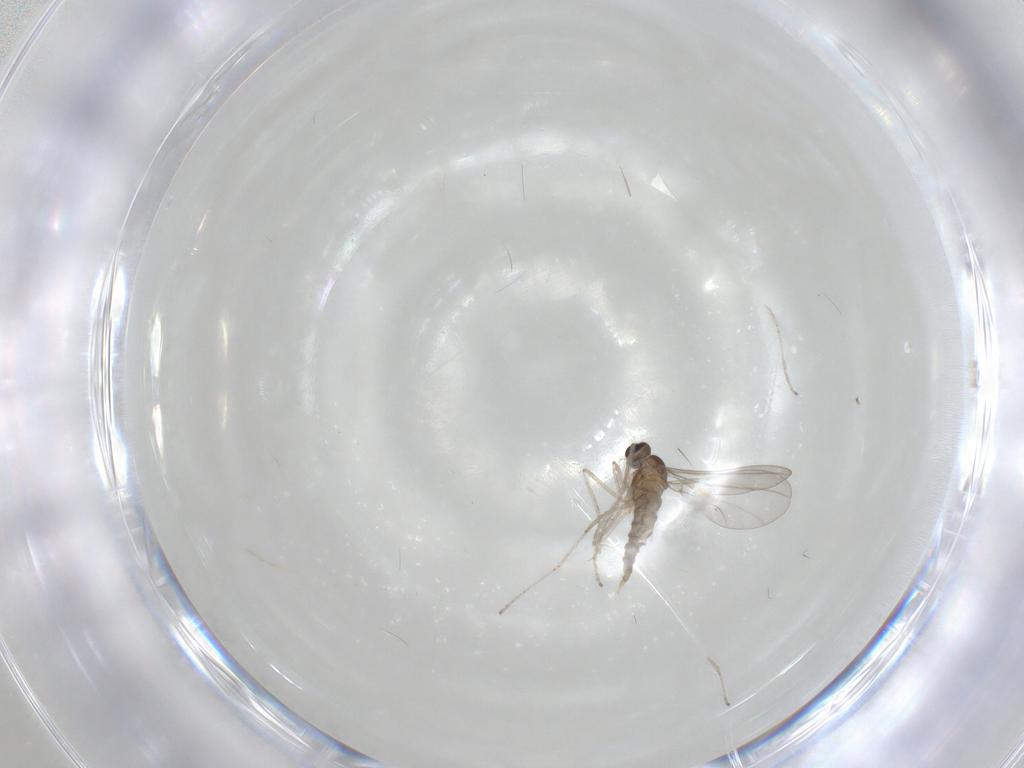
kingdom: Animalia
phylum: Arthropoda
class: Insecta
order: Diptera
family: Cecidomyiidae
